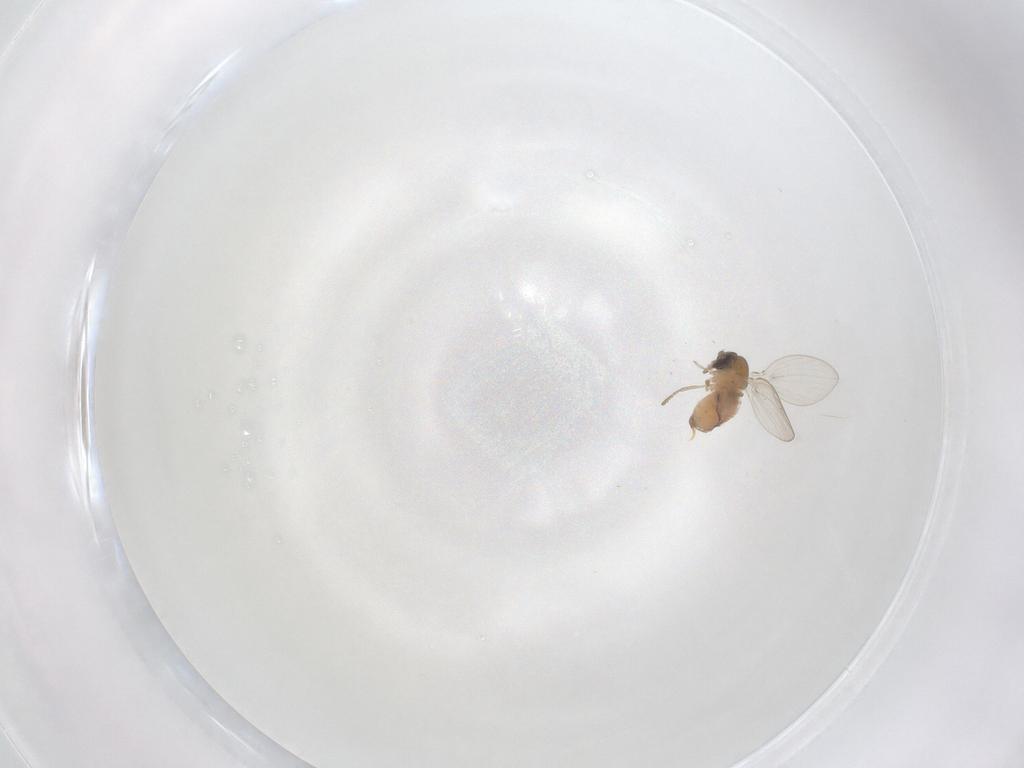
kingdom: Animalia
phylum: Arthropoda
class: Insecta
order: Diptera
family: Psychodidae
